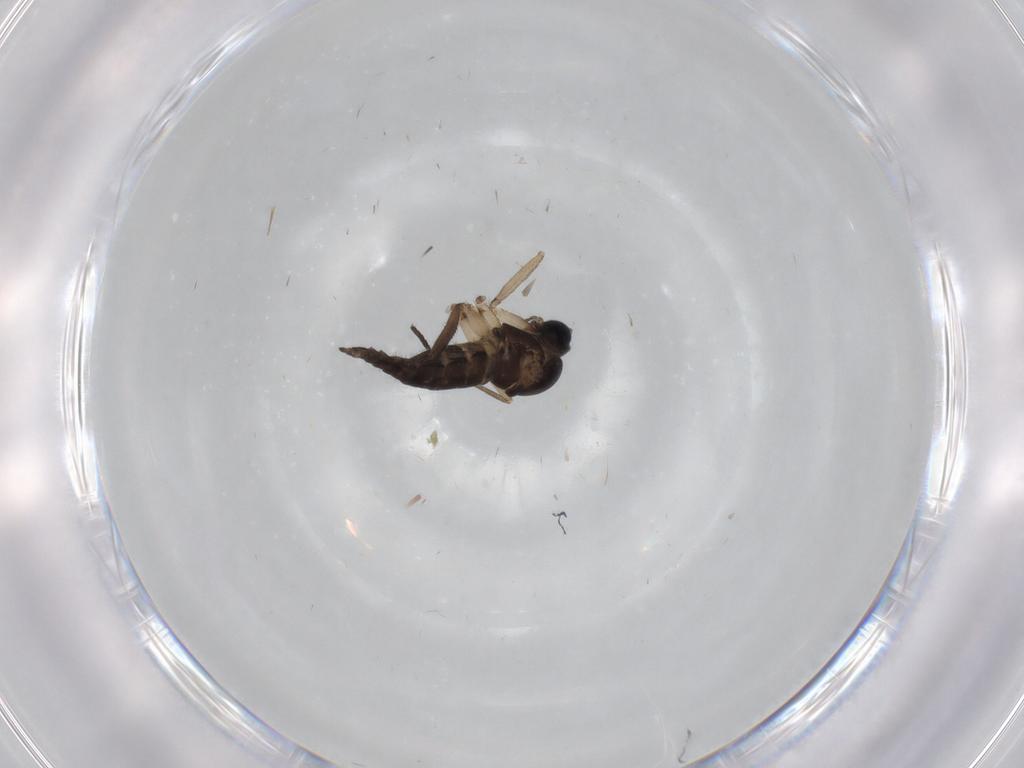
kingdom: Animalia
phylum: Arthropoda
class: Insecta
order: Diptera
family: Sciaridae
